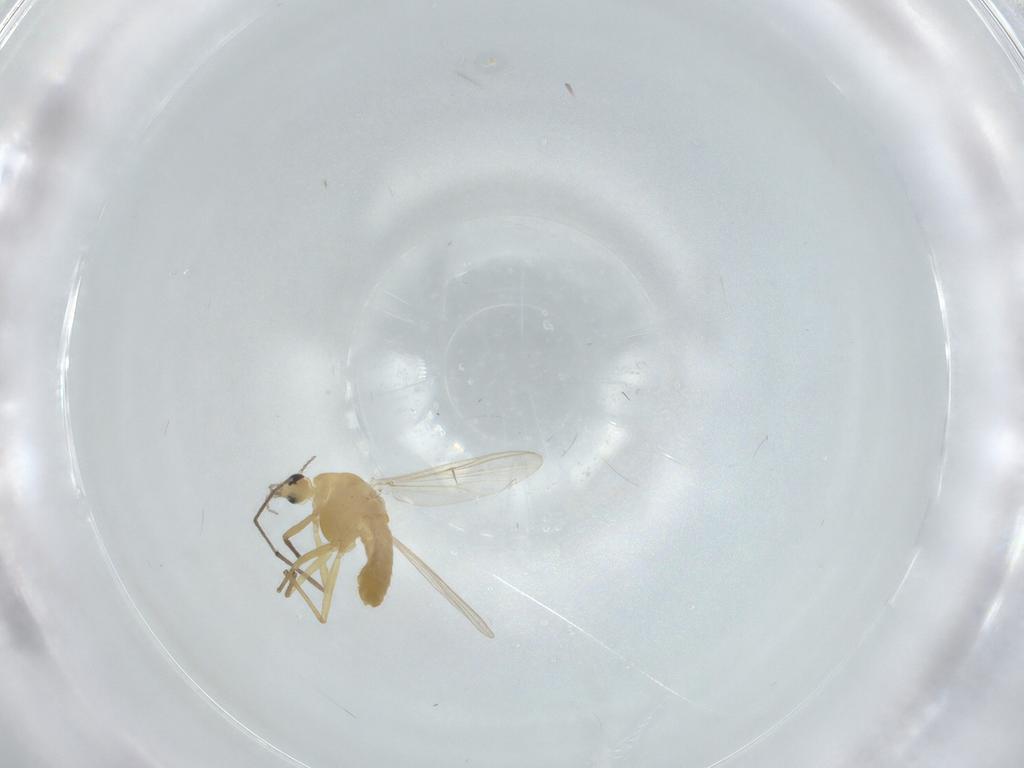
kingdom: Animalia
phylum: Arthropoda
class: Insecta
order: Diptera
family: Chironomidae
